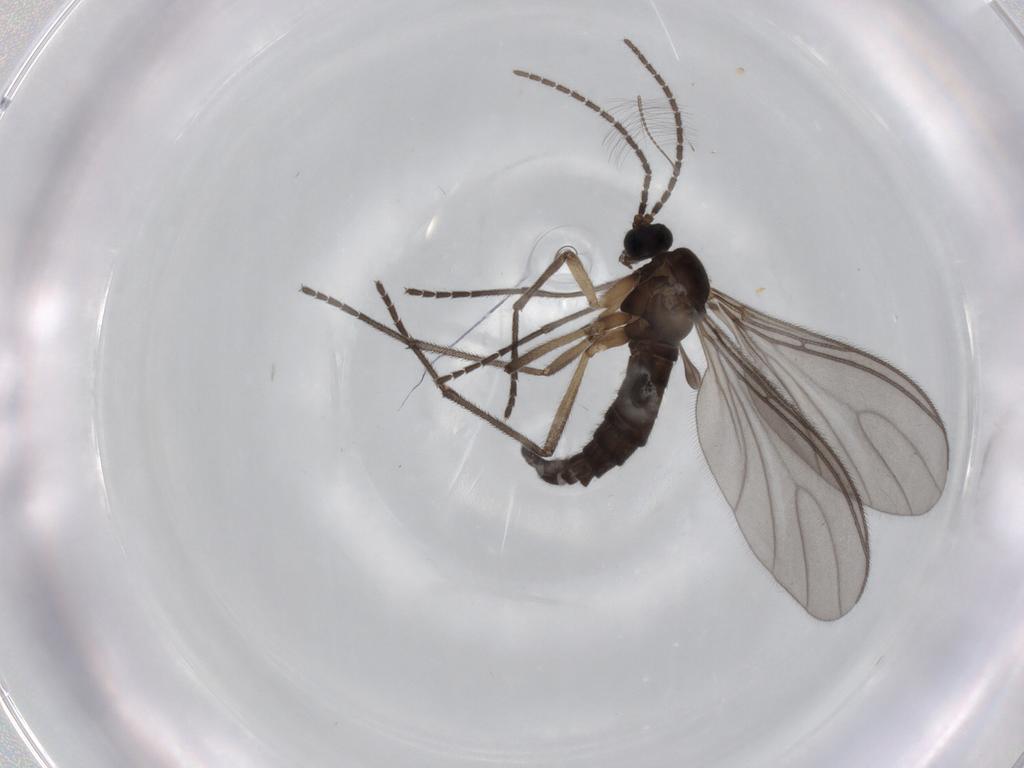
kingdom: Animalia
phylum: Arthropoda
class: Insecta
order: Diptera
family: Sciaridae
